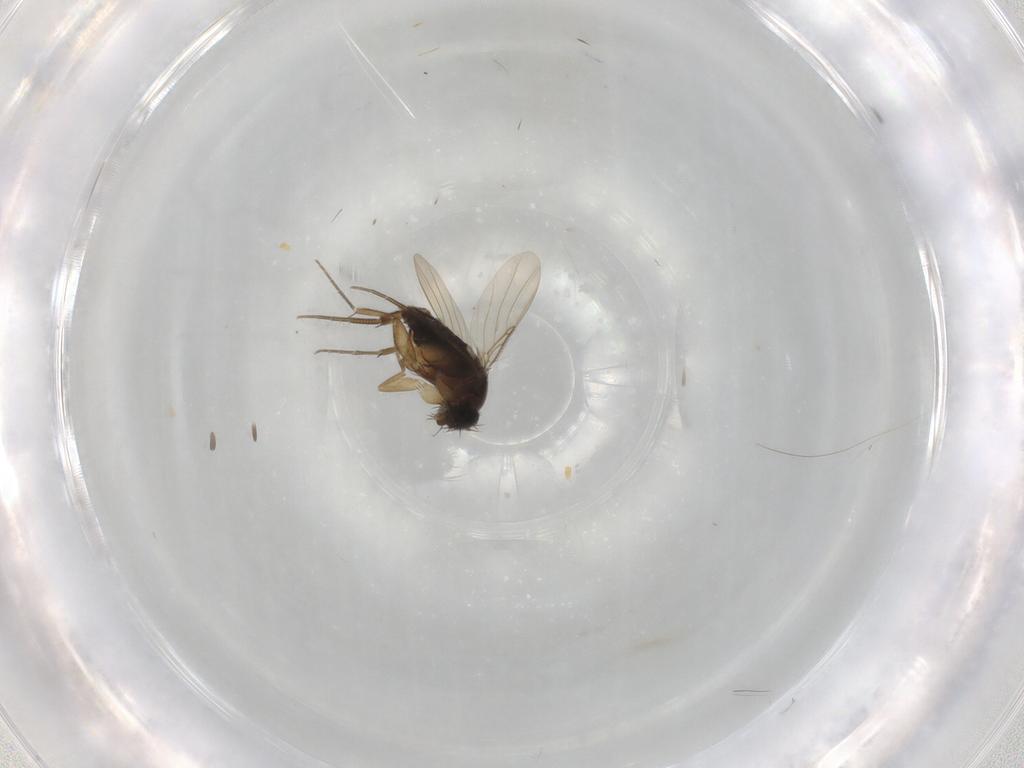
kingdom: Animalia
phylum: Arthropoda
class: Insecta
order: Diptera
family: Phoridae
